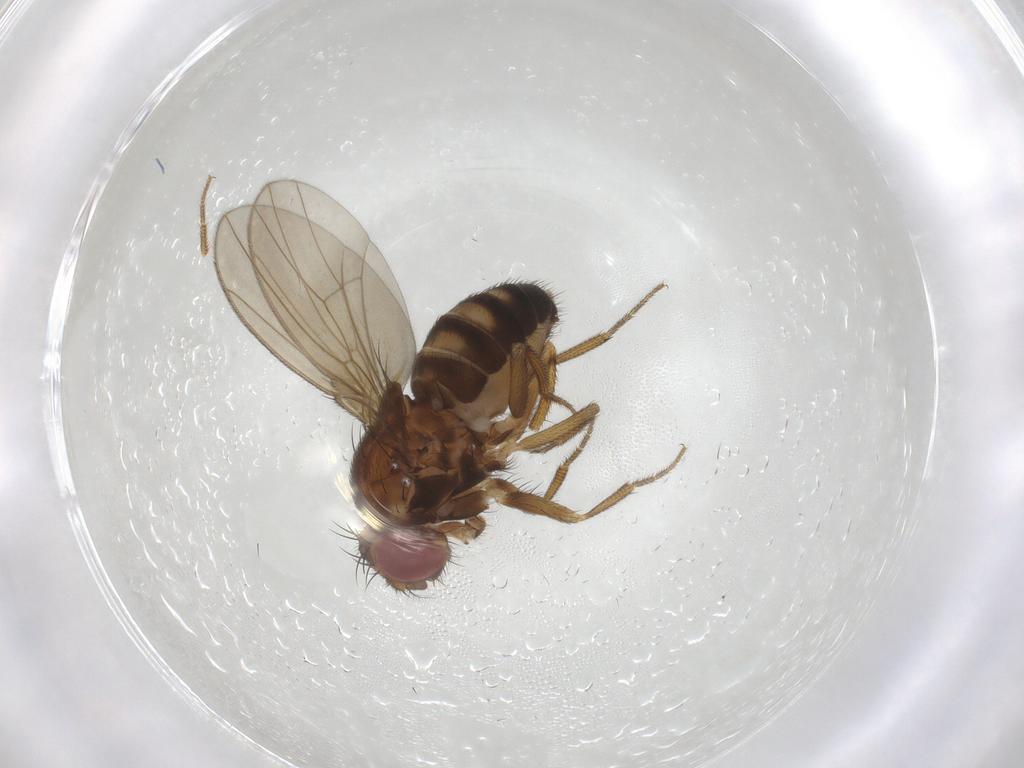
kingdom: Animalia
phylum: Arthropoda
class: Insecta
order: Diptera
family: Drosophilidae
